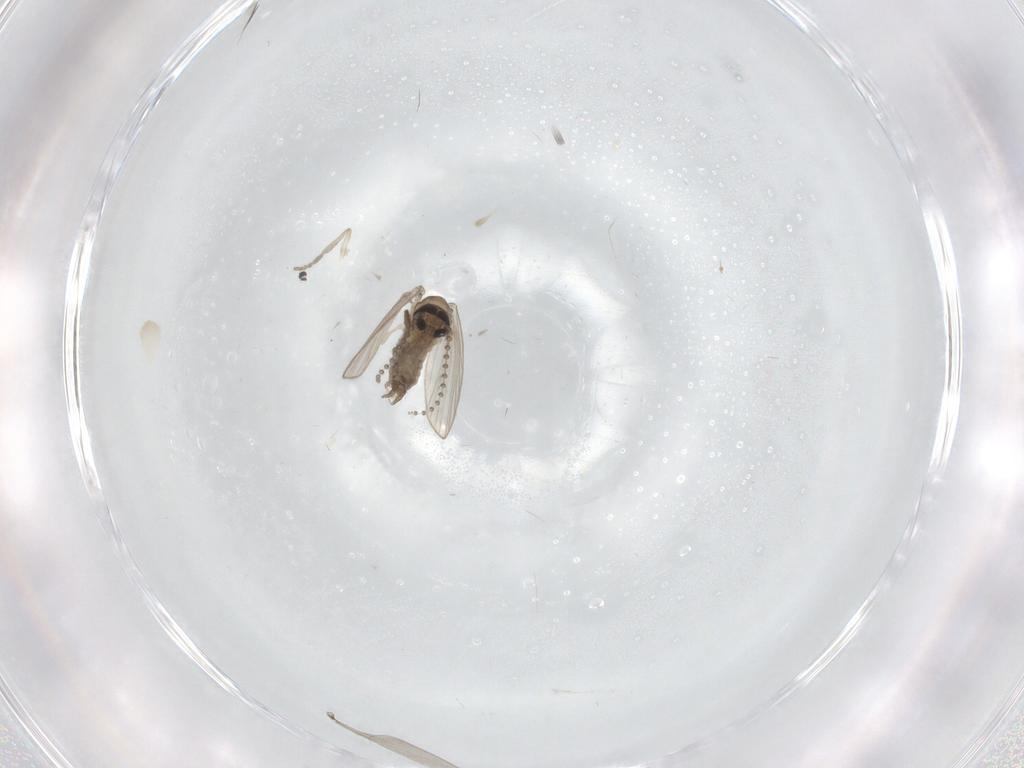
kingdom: Animalia
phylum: Arthropoda
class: Insecta
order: Diptera
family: Psychodidae
